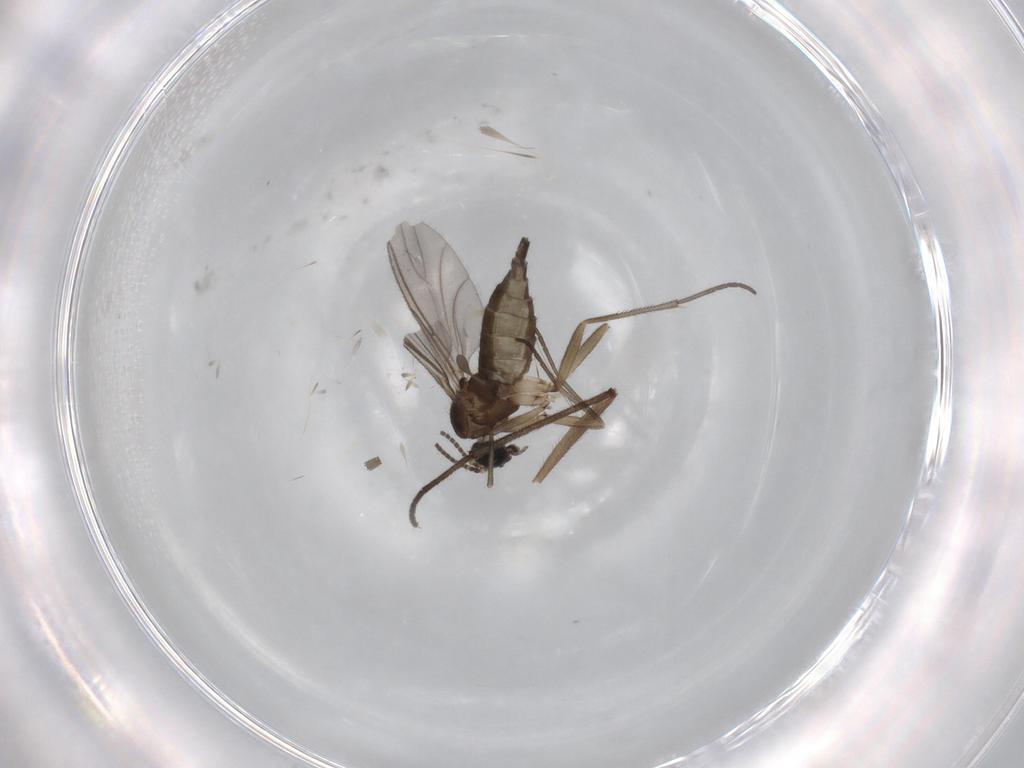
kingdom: Animalia
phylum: Arthropoda
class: Insecta
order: Diptera
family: Sciaridae
